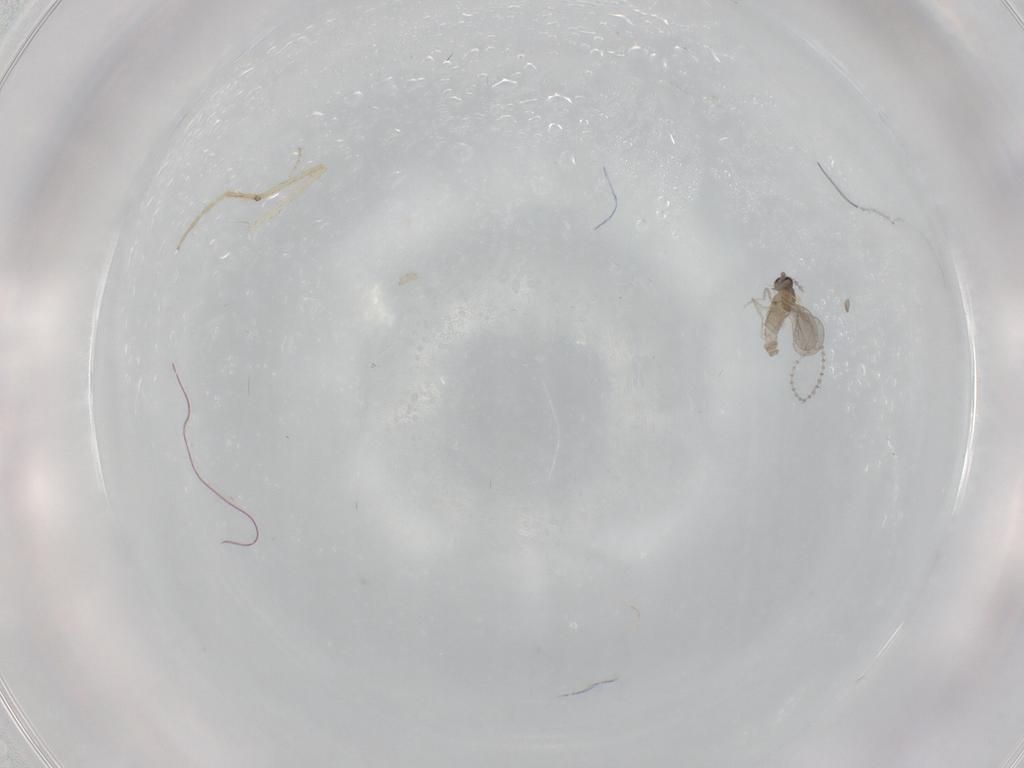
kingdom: Animalia
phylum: Arthropoda
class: Insecta
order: Diptera
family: Chironomidae
